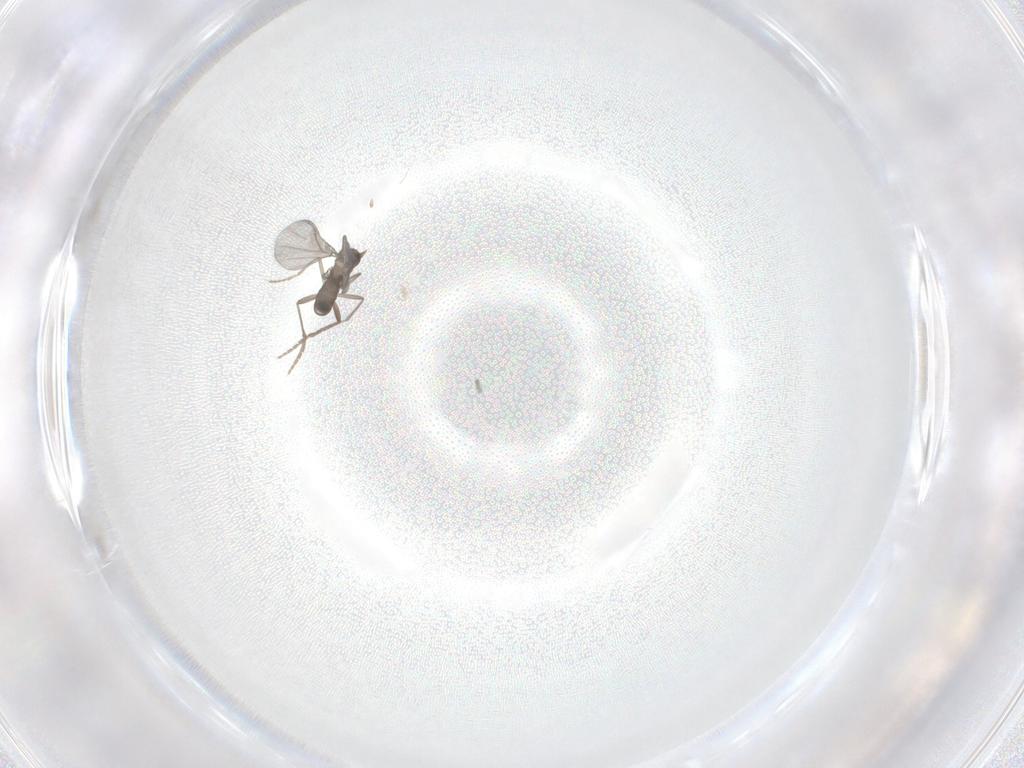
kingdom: Animalia
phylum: Arthropoda
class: Insecta
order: Diptera
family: Phoridae
